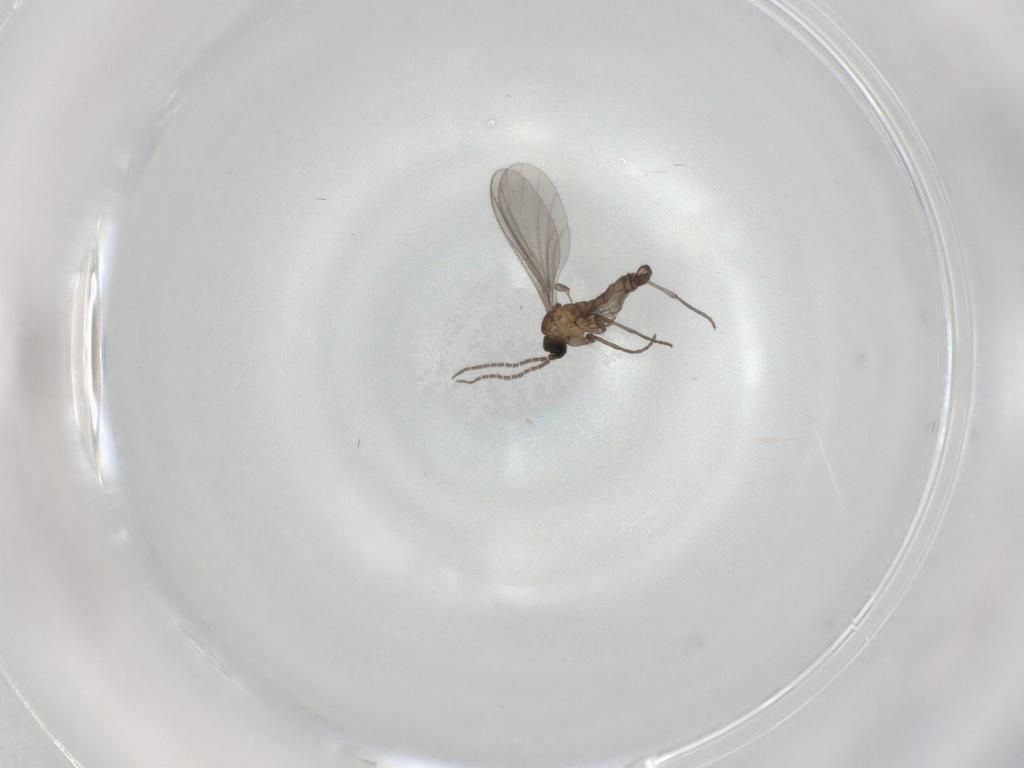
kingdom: Animalia
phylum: Arthropoda
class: Insecta
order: Diptera
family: Sciaridae
